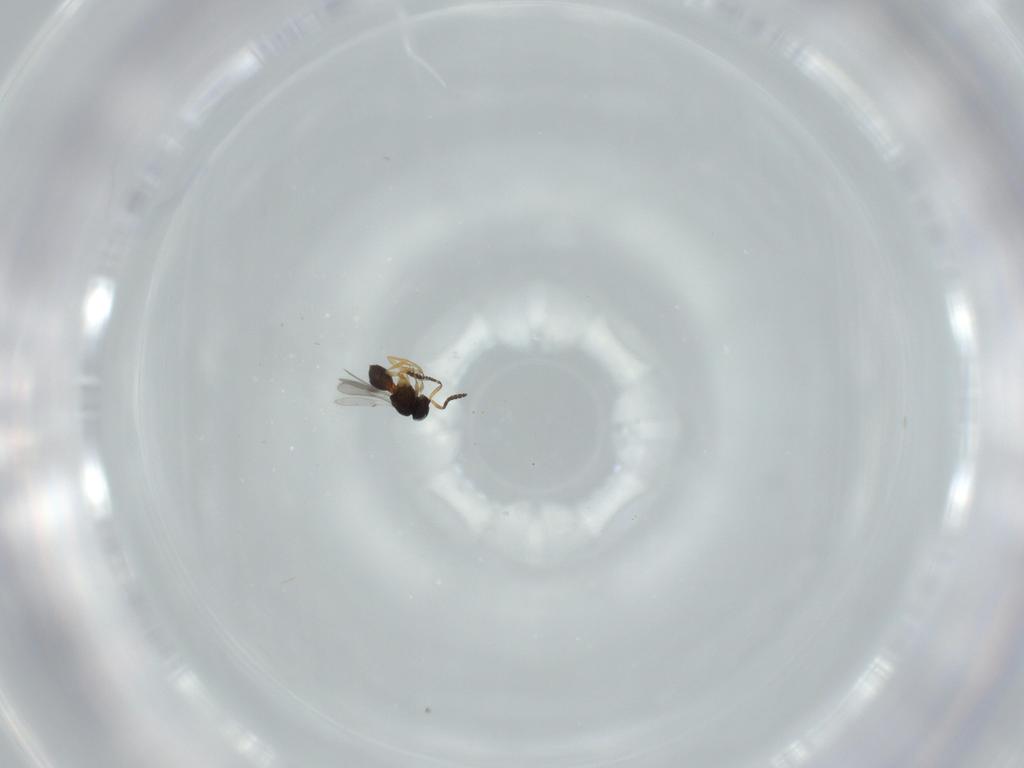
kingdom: Animalia
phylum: Arthropoda
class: Insecta
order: Hymenoptera
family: Scelionidae
